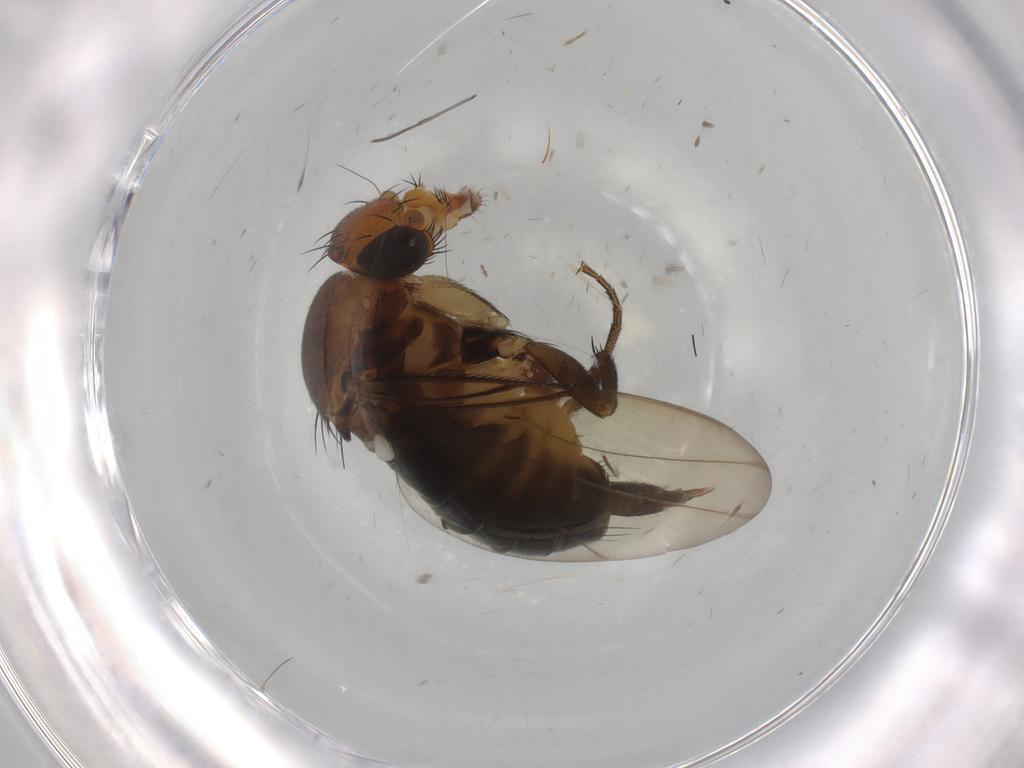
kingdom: Animalia
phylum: Arthropoda
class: Insecta
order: Diptera
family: Phoridae
